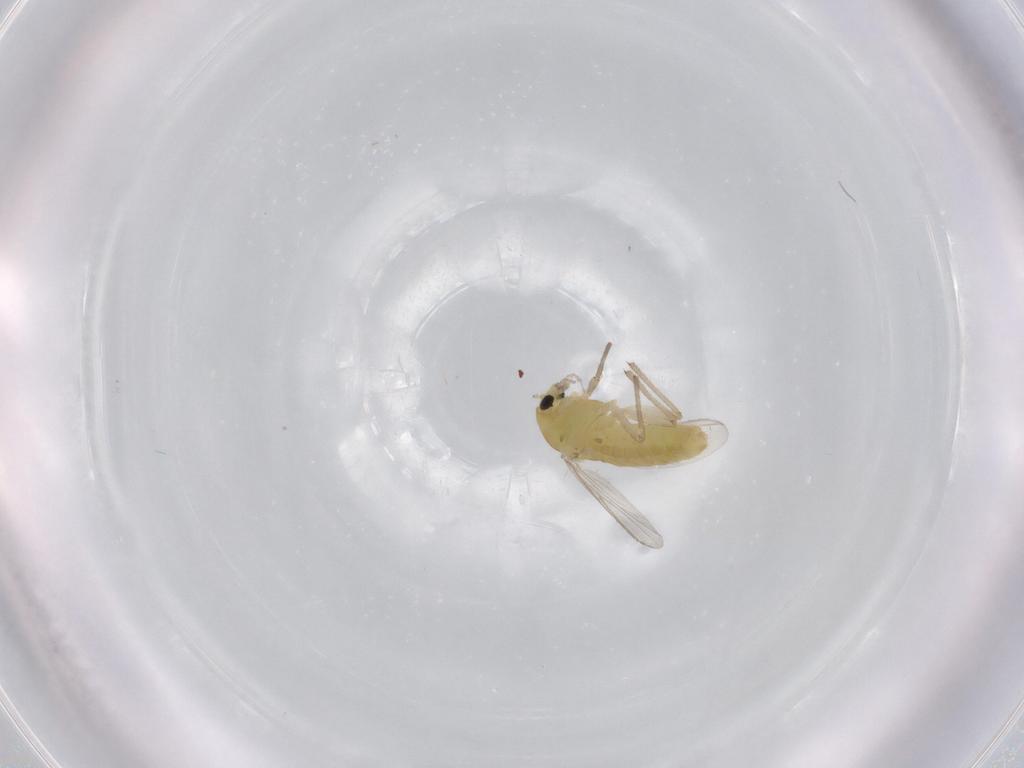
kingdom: Animalia
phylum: Arthropoda
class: Insecta
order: Diptera
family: Chironomidae
